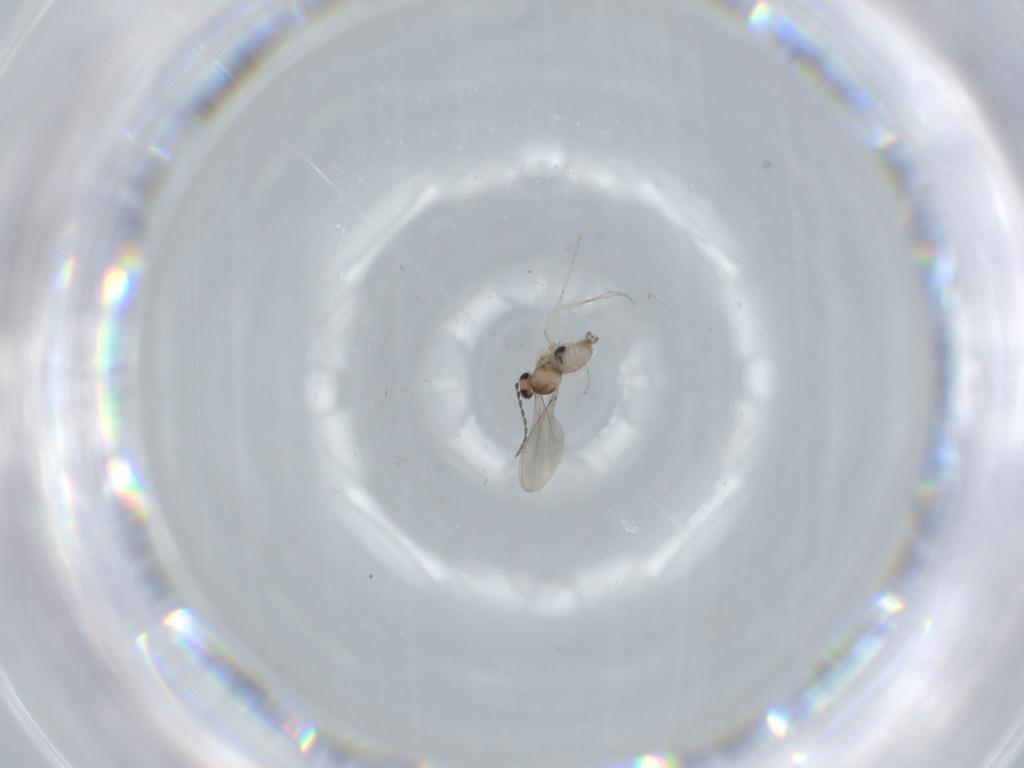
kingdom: Animalia
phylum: Arthropoda
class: Insecta
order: Diptera
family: Cecidomyiidae
